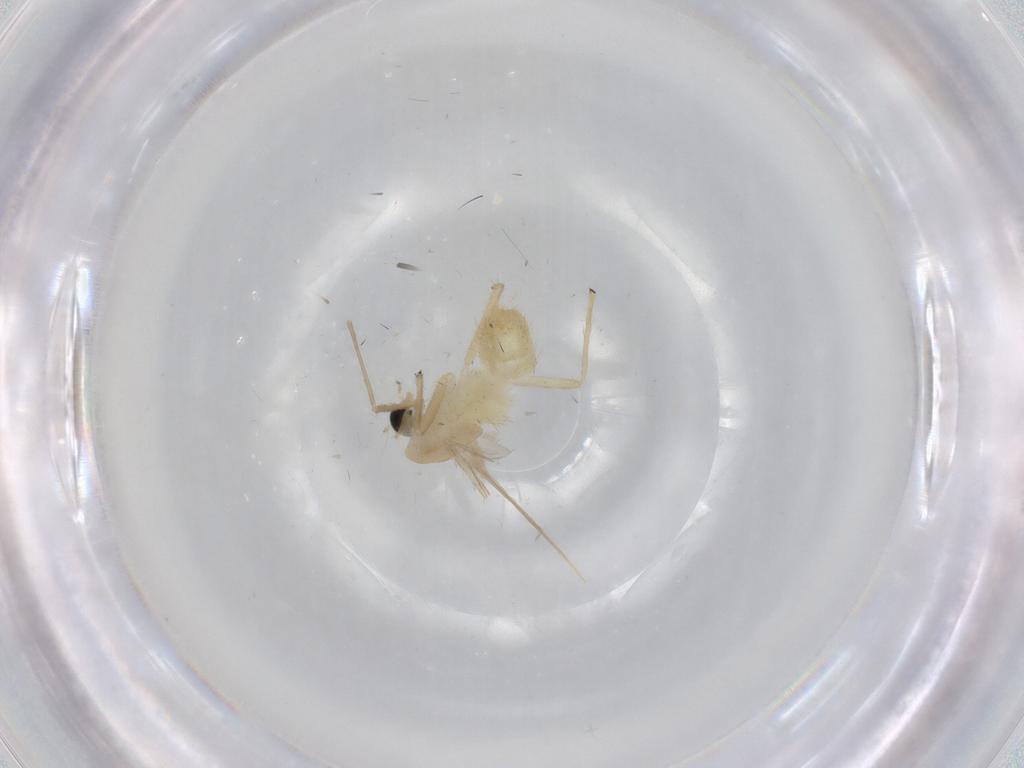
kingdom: Animalia
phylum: Arthropoda
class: Insecta
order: Diptera
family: Chironomidae
